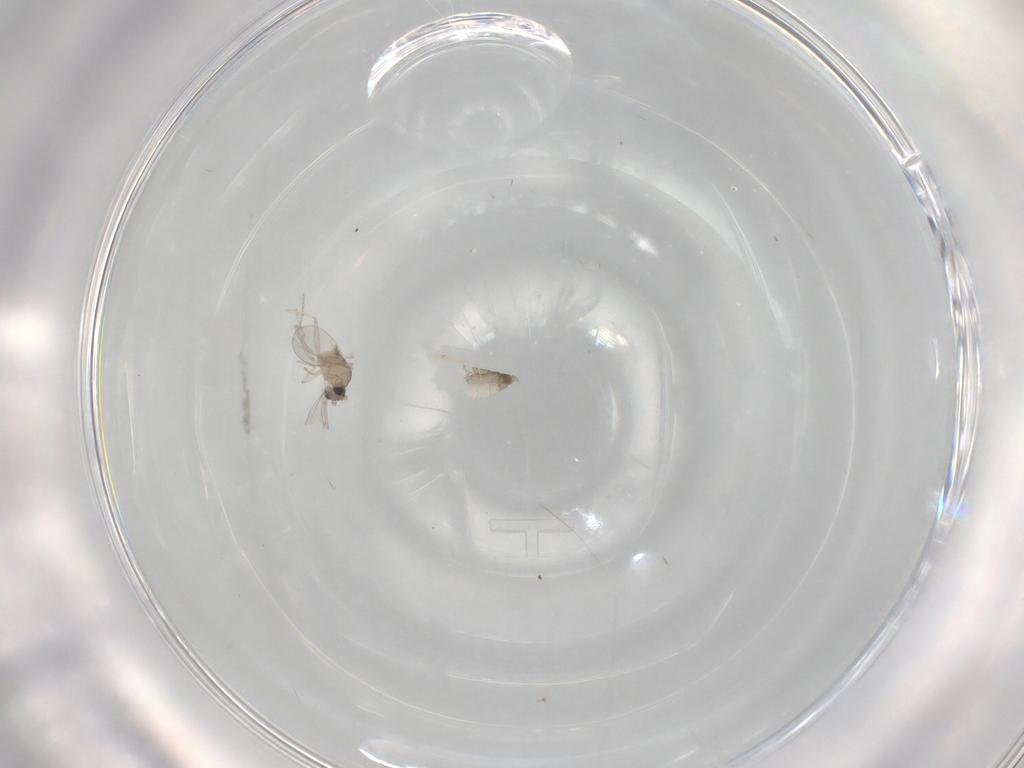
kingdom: Animalia
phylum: Arthropoda
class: Insecta
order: Diptera
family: Cecidomyiidae
